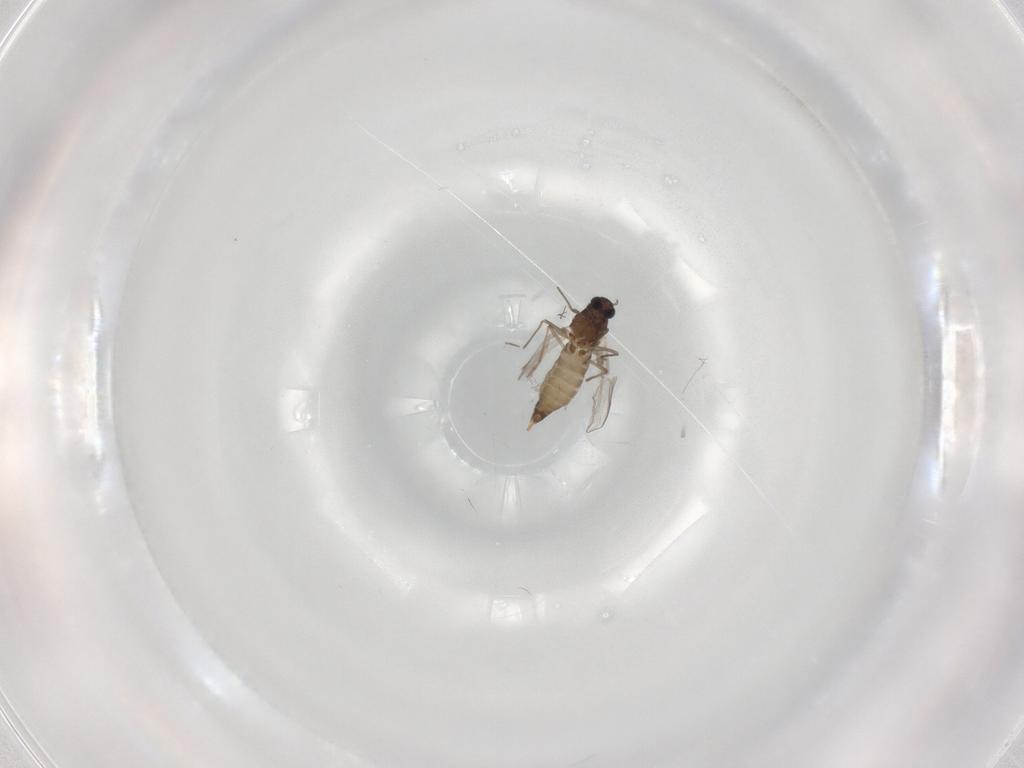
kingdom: Animalia
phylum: Arthropoda
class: Insecta
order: Diptera
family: Chironomidae
